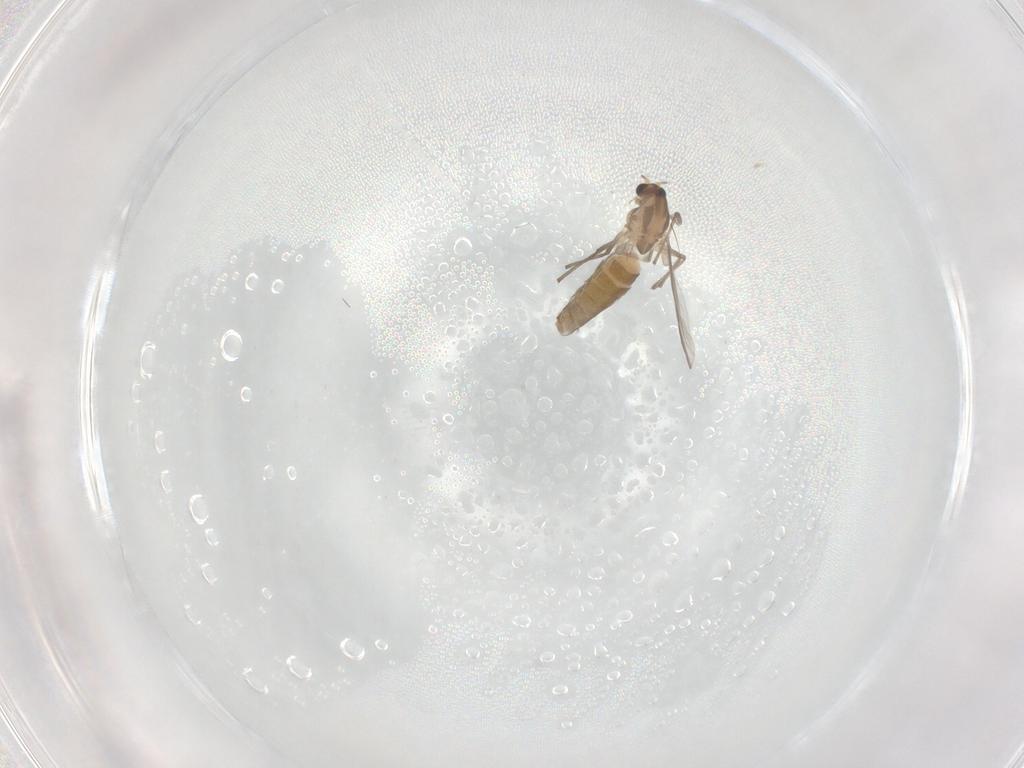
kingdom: Animalia
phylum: Arthropoda
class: Insecta
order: Diptera
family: Cecidomyiidae
